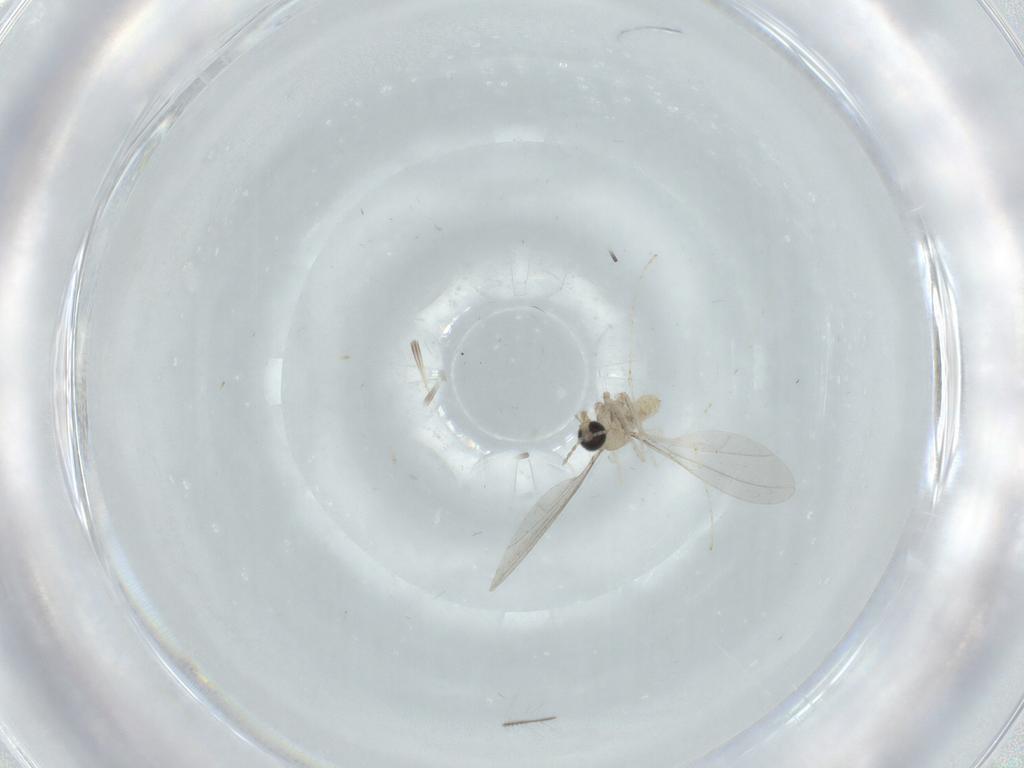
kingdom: Animalia
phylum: Arthropoda
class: Insecta
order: Diptera
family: Cecidomyiidae
